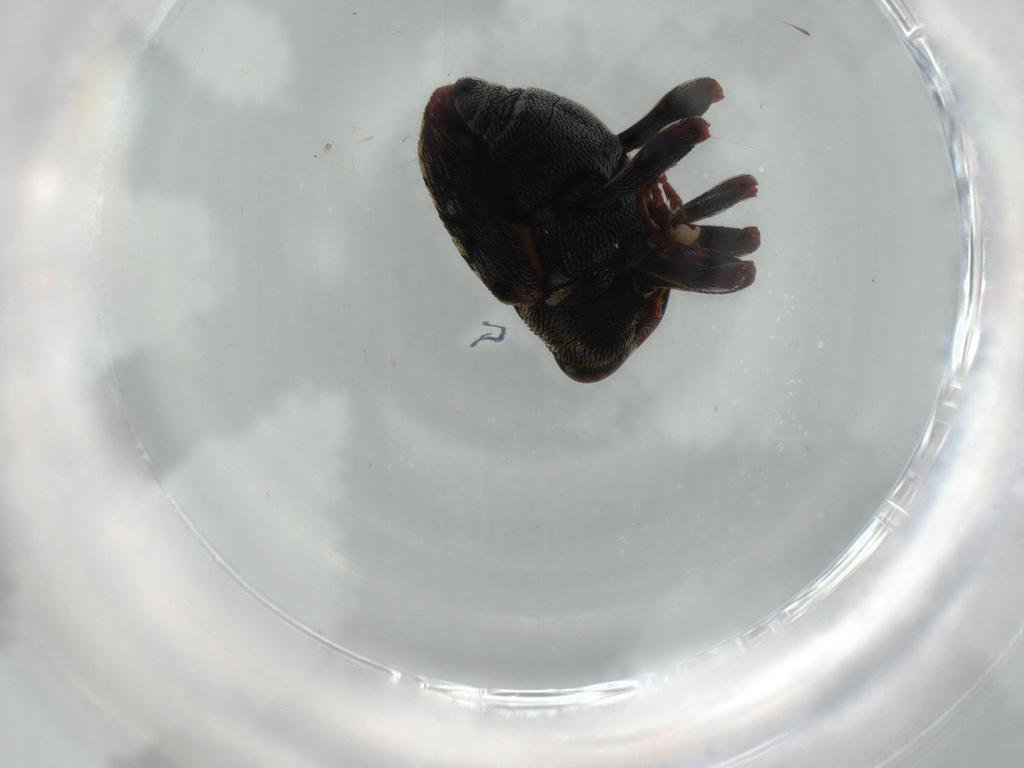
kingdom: Animalia
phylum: Arthropoda
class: Insecta
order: Coleoptera
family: Curculionidae
